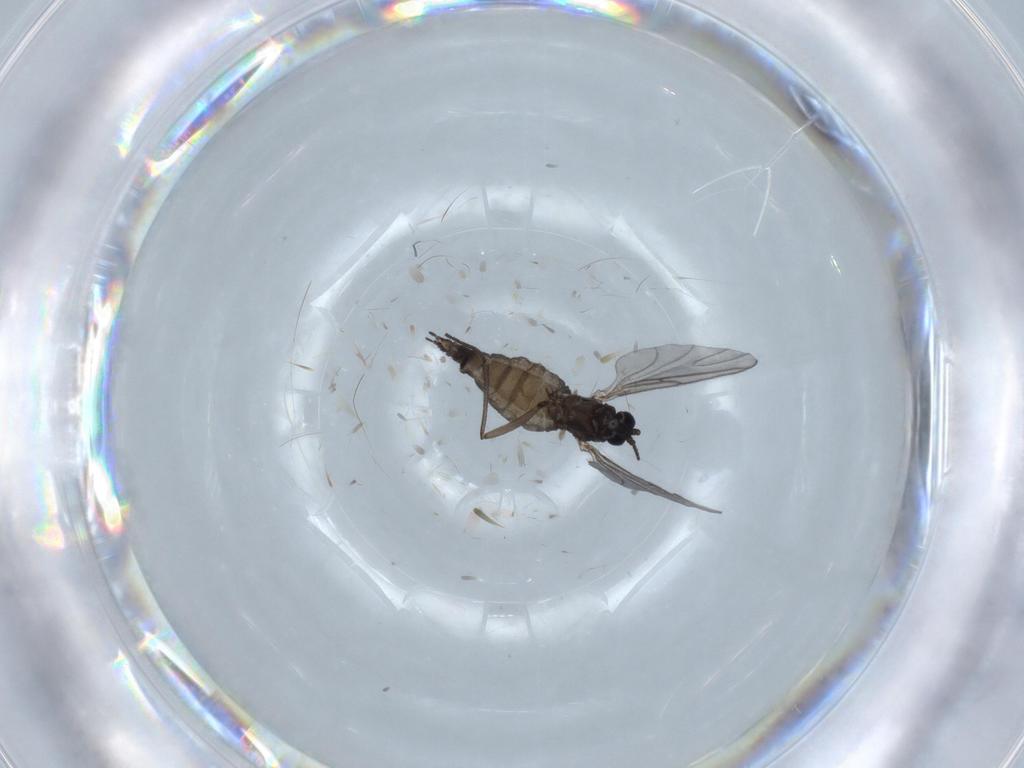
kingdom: Animalia
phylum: Arthropoda
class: Insecta
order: Diptera
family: Sciaridae
